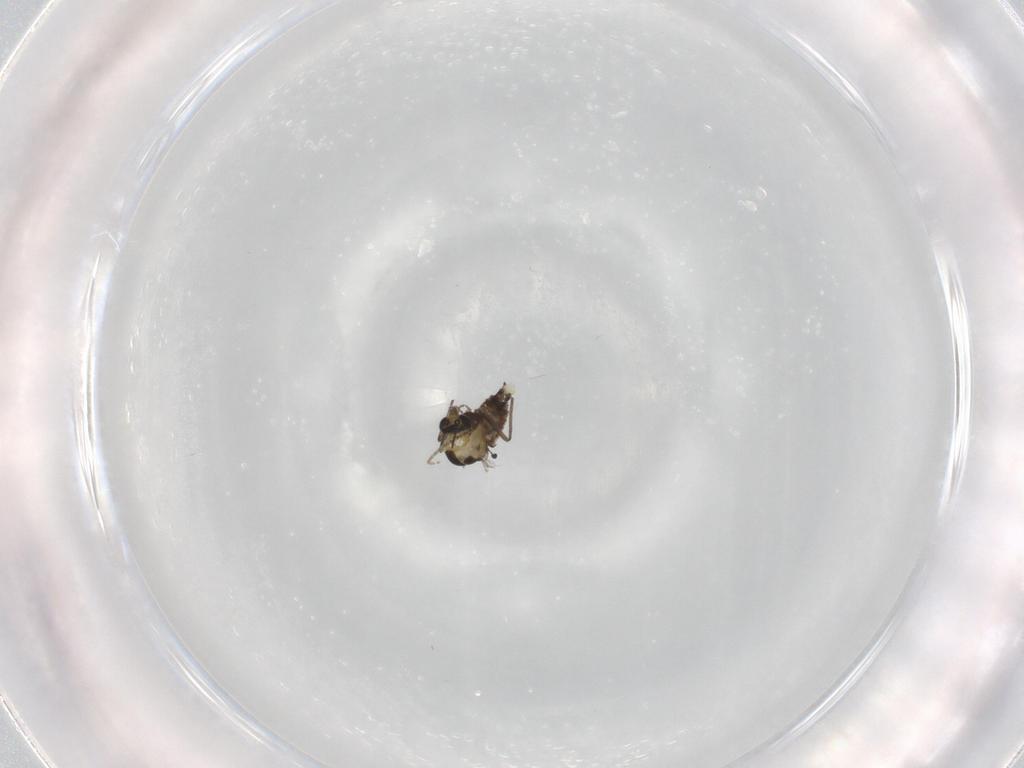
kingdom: Animalia
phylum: Arthropoda
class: Insecta
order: Diptera
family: Chironomidae
